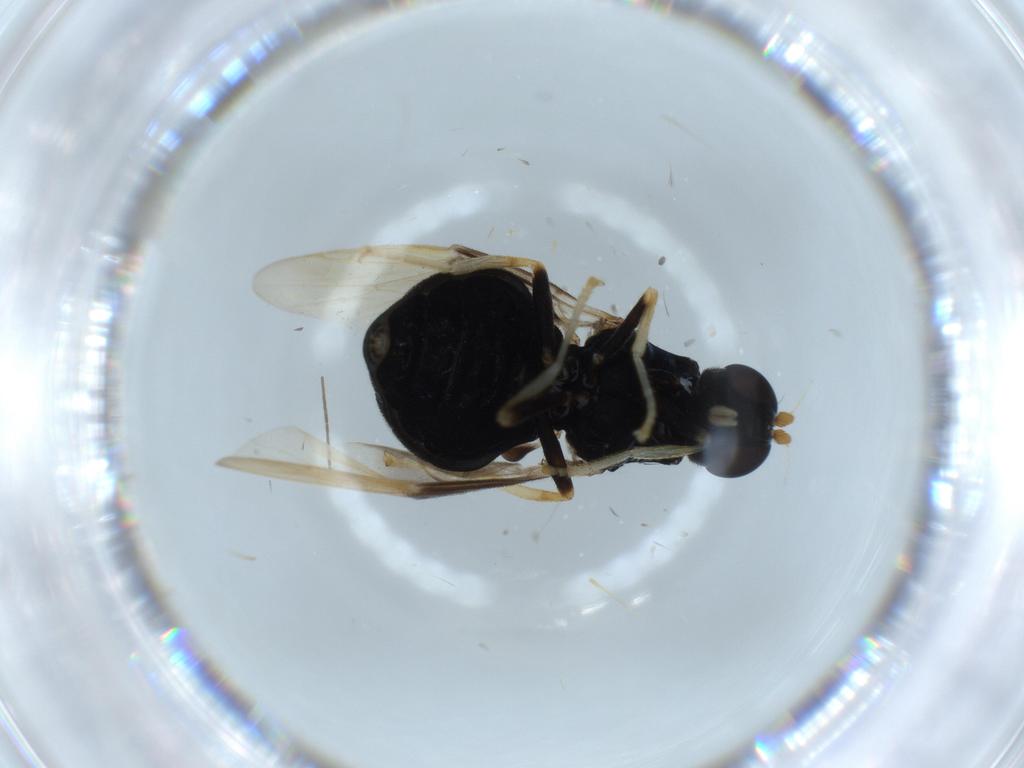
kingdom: Animalia
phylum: Arthropoda
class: Insecta
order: Diptera
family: Stratiomyidae
